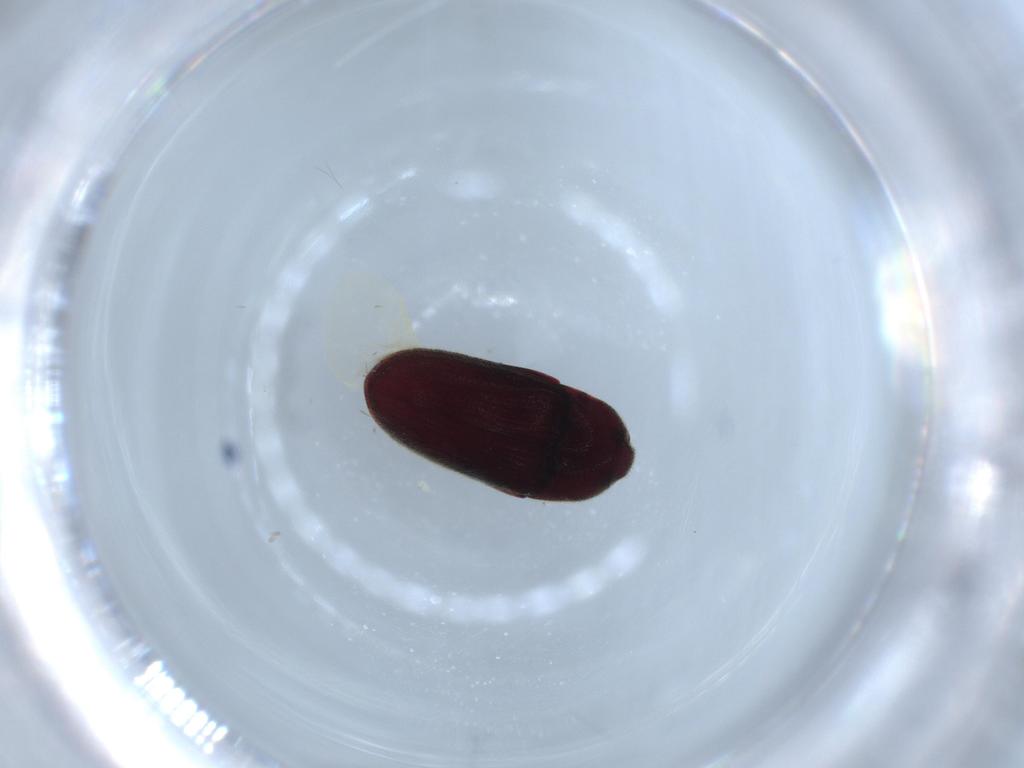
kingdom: Animalia
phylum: Arthropoda
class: Insecta
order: Coleoptera
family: Throscidae
